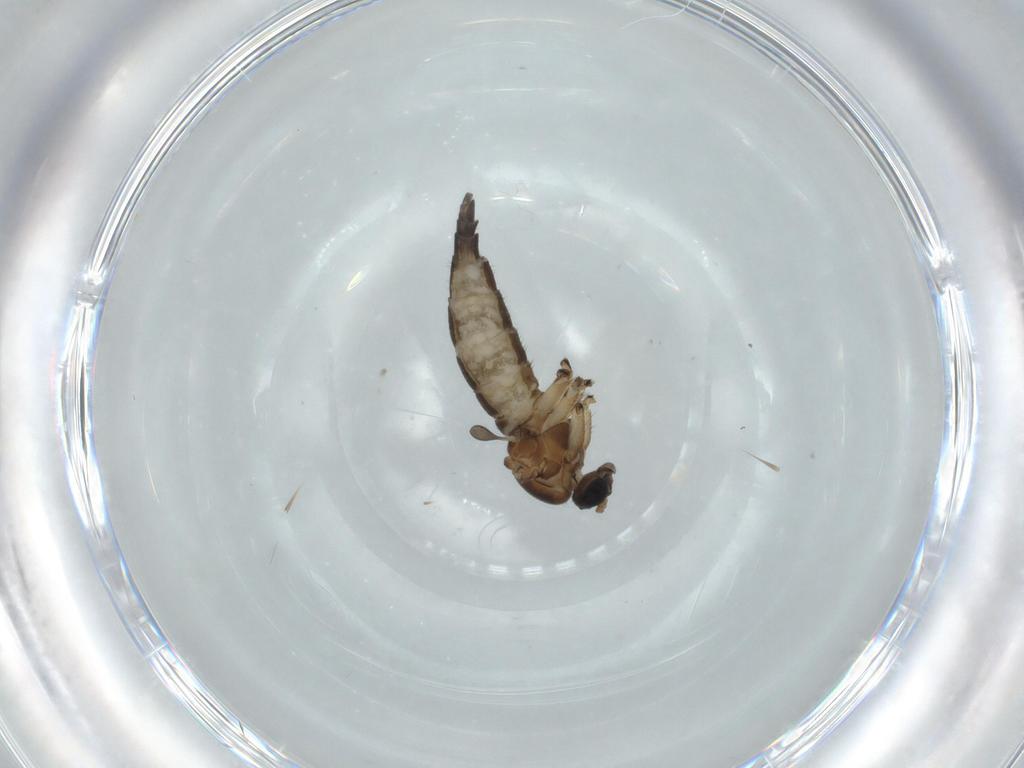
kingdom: Animalia
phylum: Arthropoda
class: Insecta
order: Diptera
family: Sciaridae
